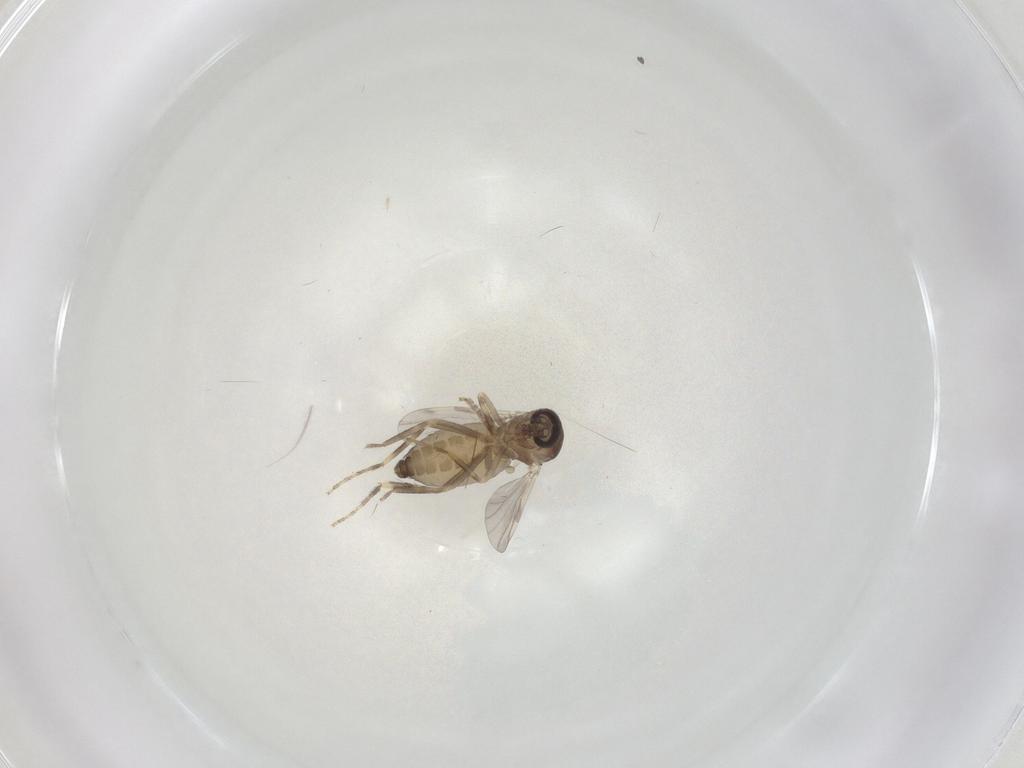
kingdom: Animalia
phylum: Arthropoda
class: Insecta
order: Diptera
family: Ceratopogonidae
